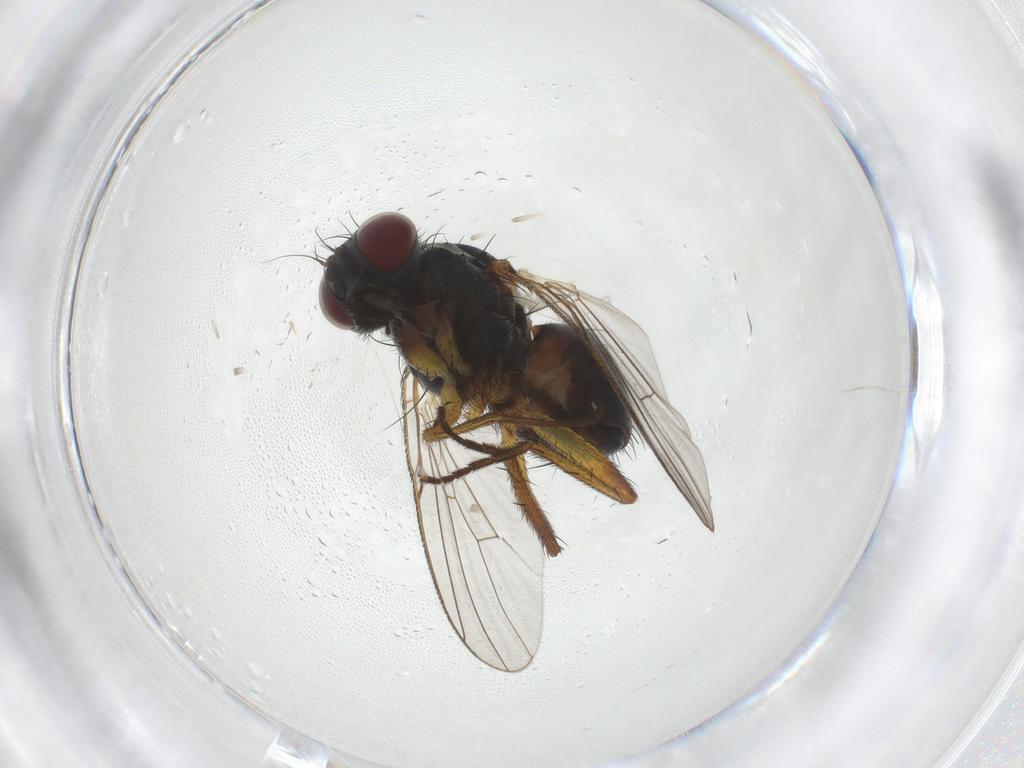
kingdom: Animalia
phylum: Arthropoda
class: Insecta
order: Diptera
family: Muscidae
